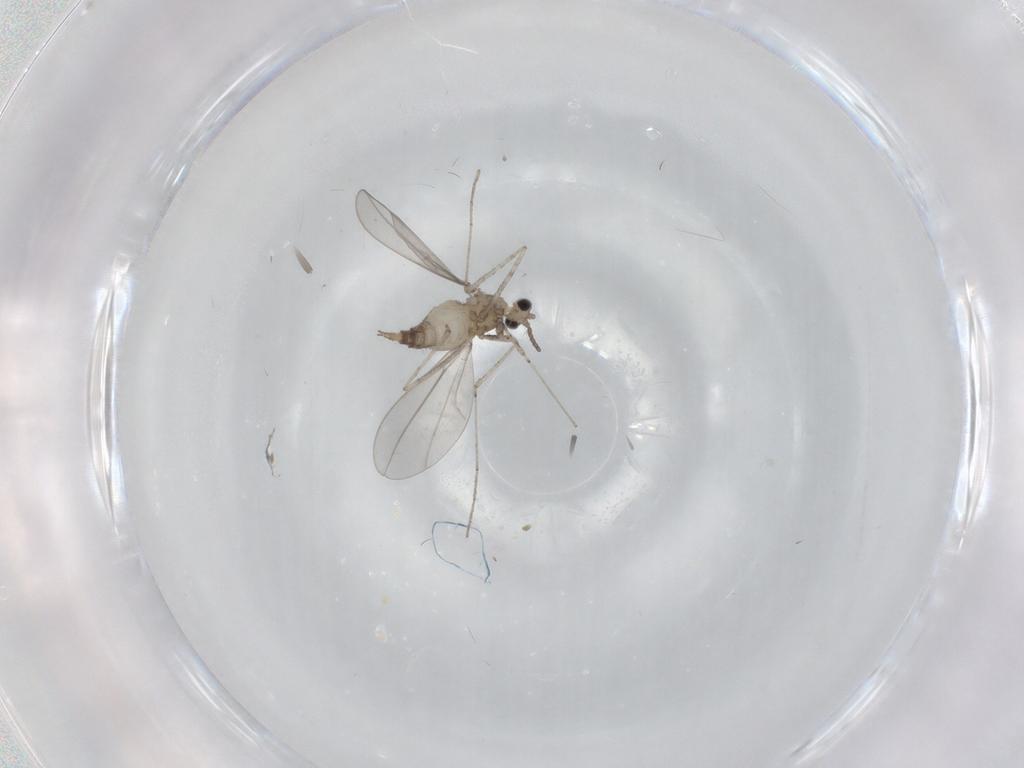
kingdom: Animalia
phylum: Arthropoda
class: Insecta
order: Diptera
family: Cecidomyiidae
